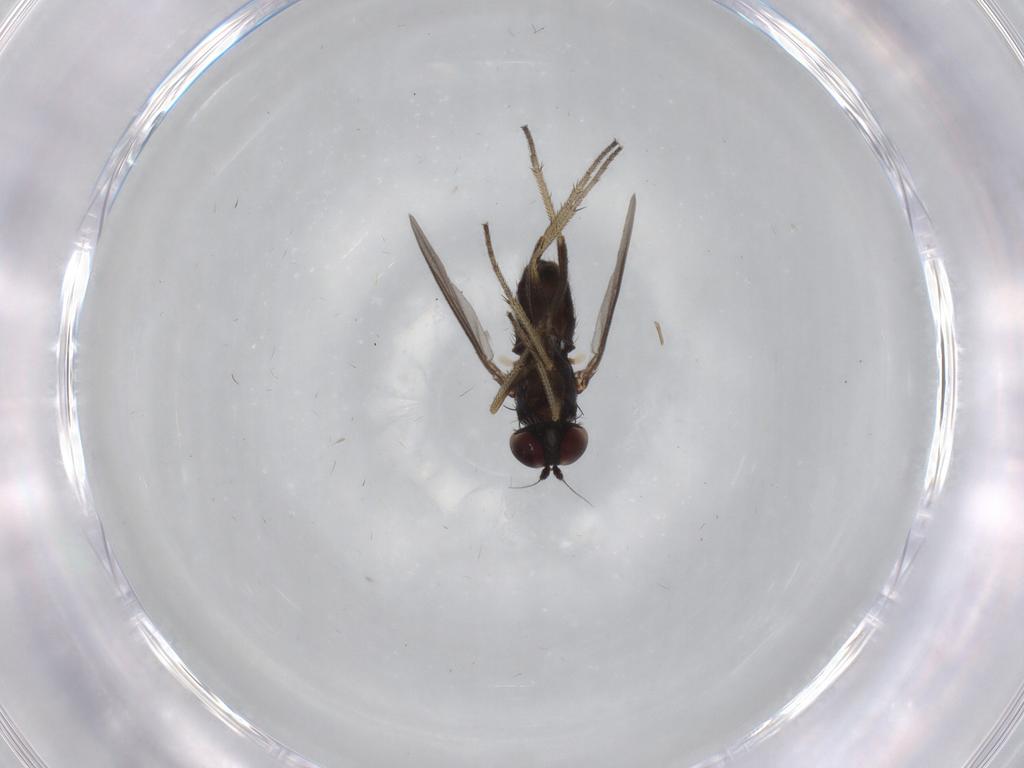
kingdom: Animalia
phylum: Arthropoda
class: Insecta
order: Diptera
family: Dolichopodidae
